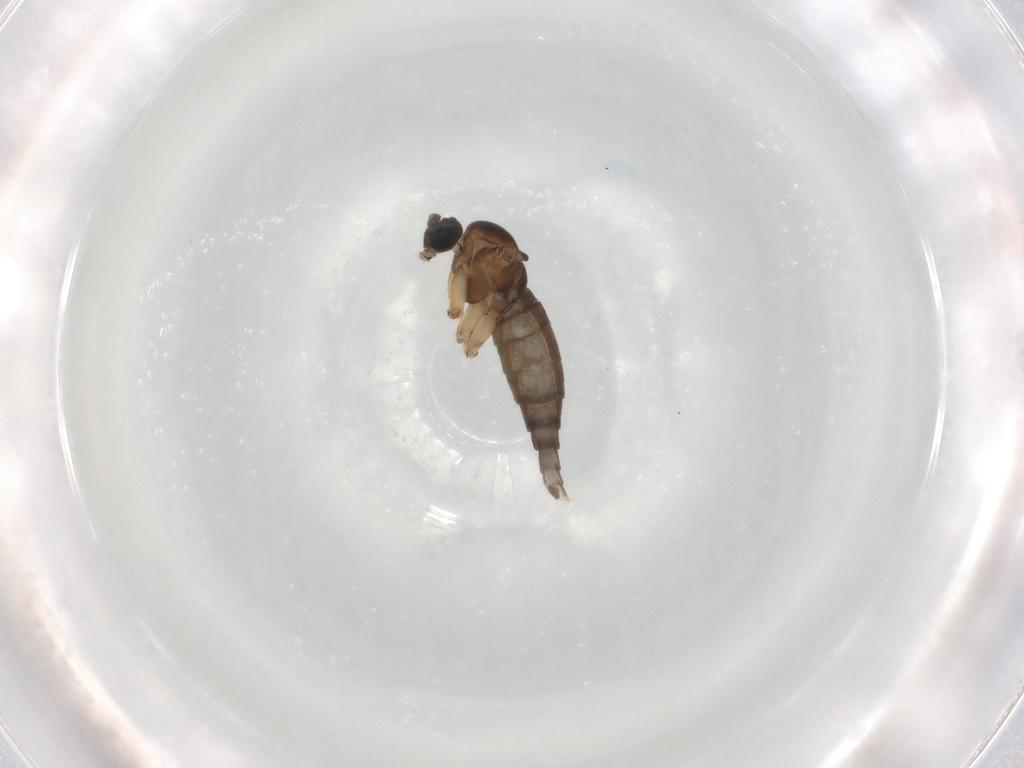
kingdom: Animalia
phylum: Arthropoda
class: Insecta
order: Diptera
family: Sciaridae
